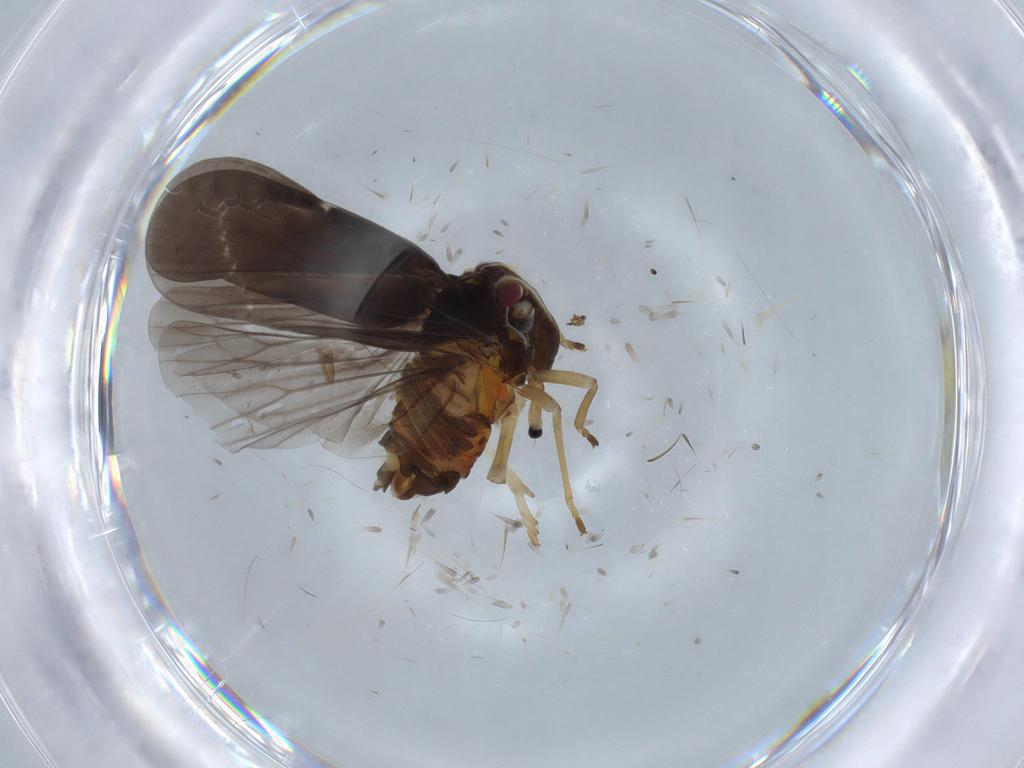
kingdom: Animalia
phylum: Arthropoda
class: Insecta
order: Hemiptera
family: Derbidae
